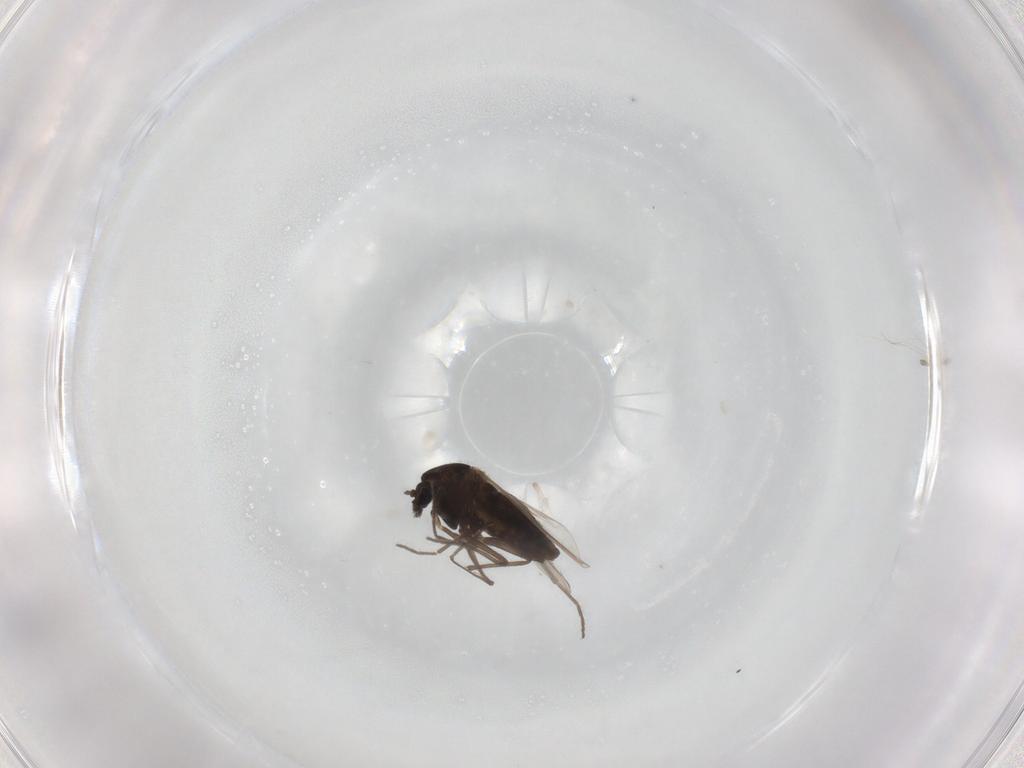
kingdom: Animalia
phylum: Arthropoda
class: Insecta
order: Diptera
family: Chironomidae
